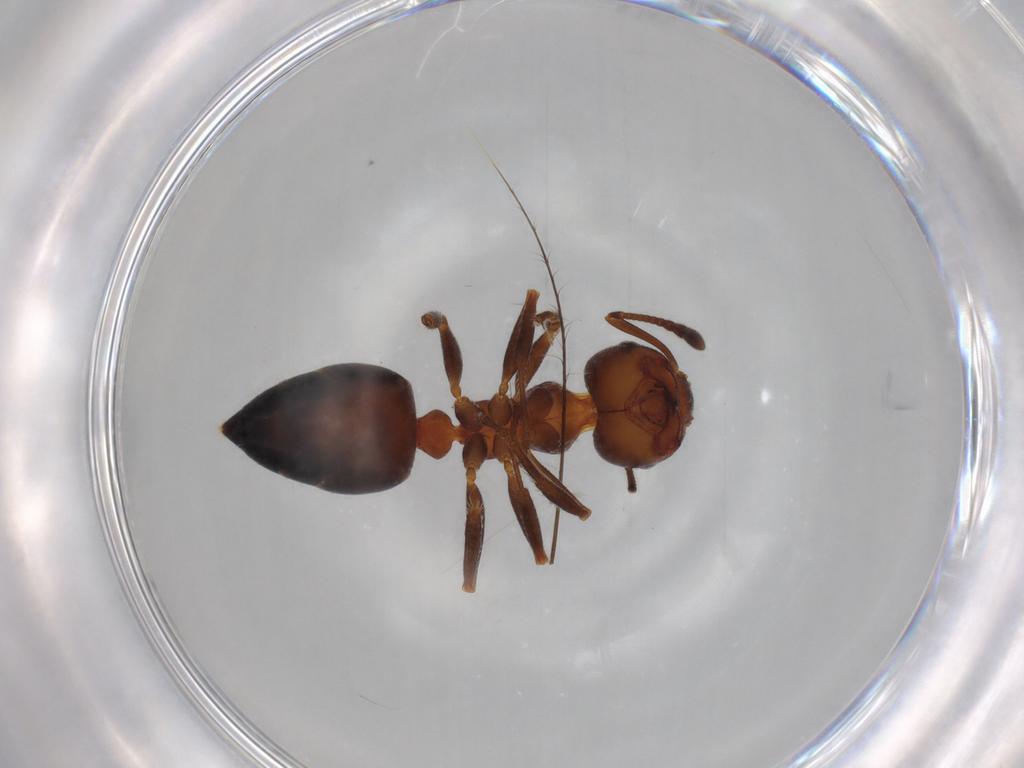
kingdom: Animalia
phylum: Arthropoda
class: Insecta
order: Hymenoptera
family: Formicidae
